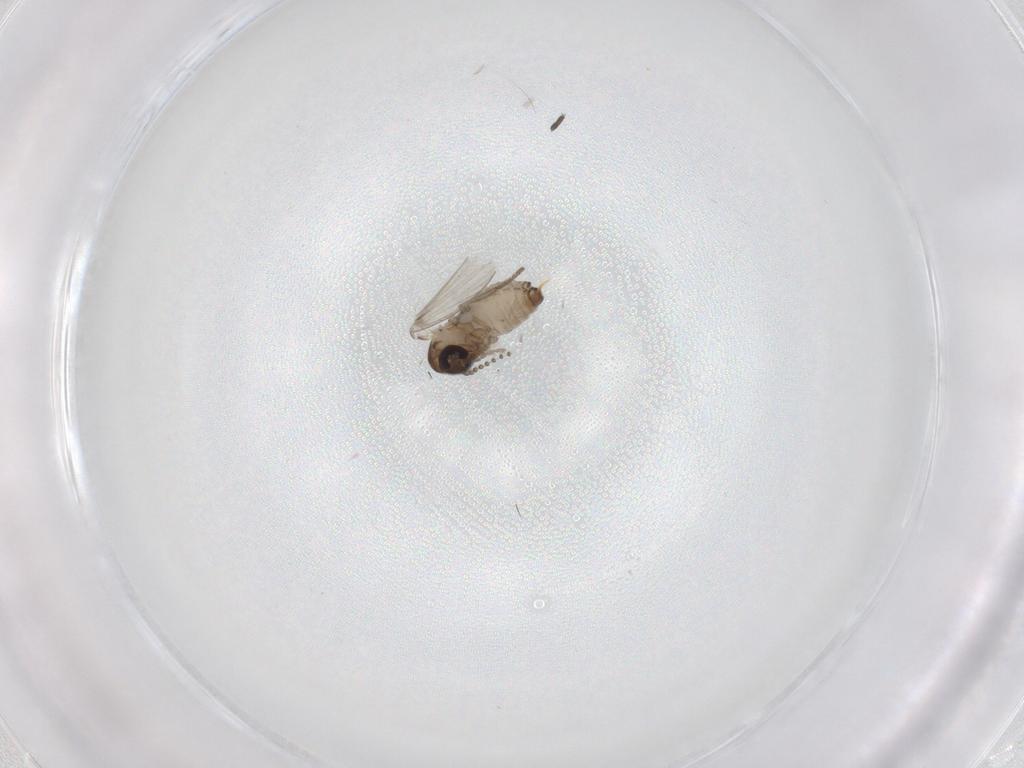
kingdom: Animalia
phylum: Arthropoda
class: Insecta
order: Diptera
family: Psychodidae
